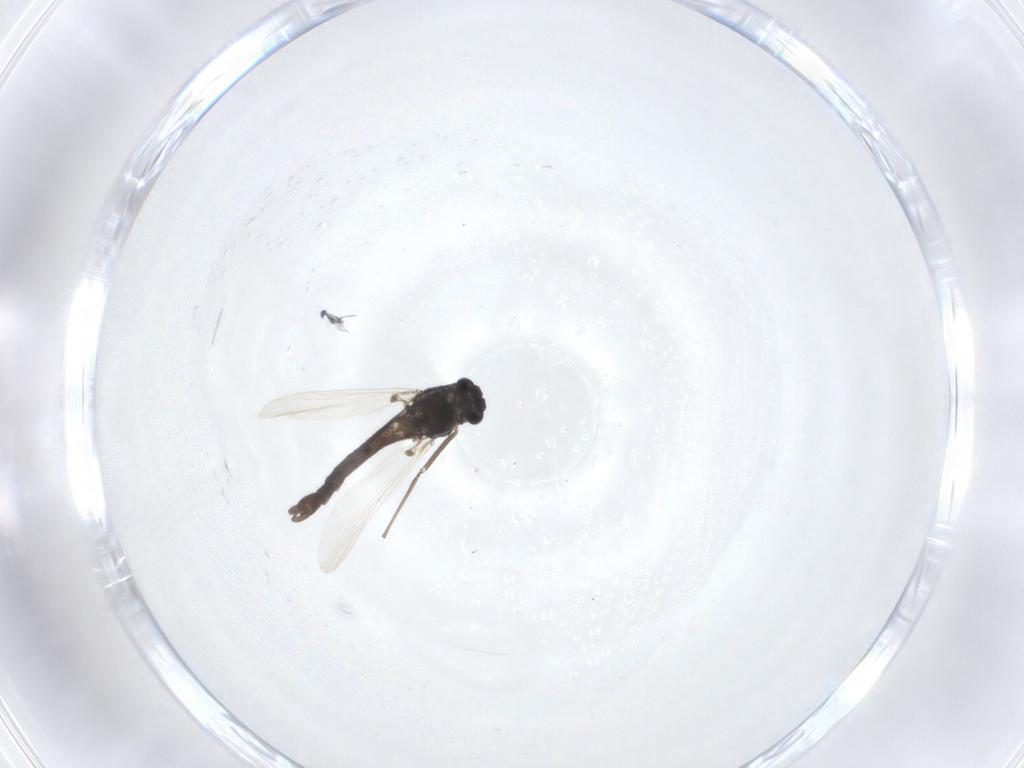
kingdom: Animalia
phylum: Arthropoda
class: Insecta
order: Diptera
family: Chironomidae
